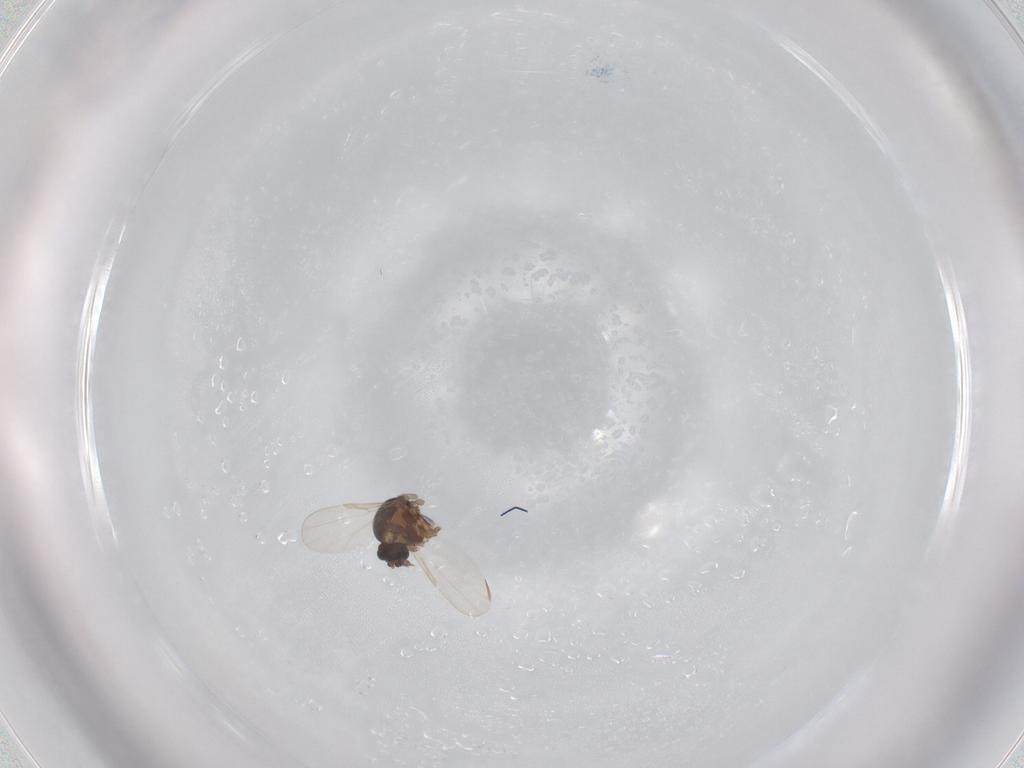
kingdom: Animalia
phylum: Arthropoda
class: Insecta
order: Diptera
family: Ceratopogonidae
